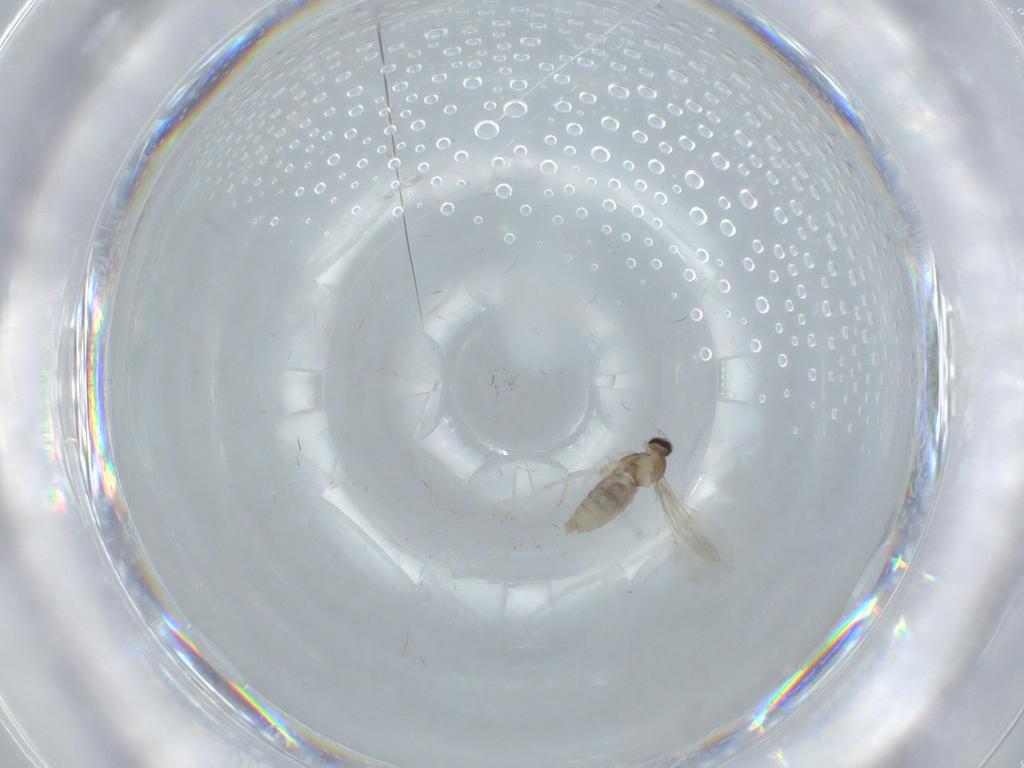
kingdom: Animalia
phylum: Arthropoda
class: Insecta
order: Diptera
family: Cecidomyiidae
